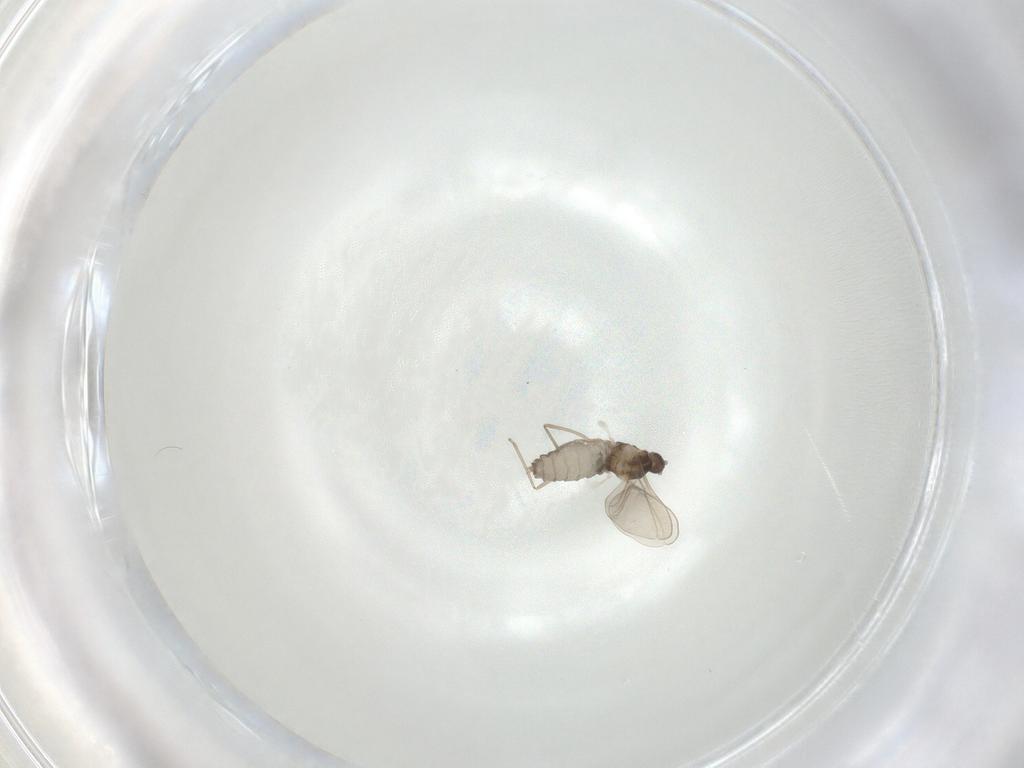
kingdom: Animalia
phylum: Arthropoda
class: Insecta
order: Diptera
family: Cecidomyiidae
